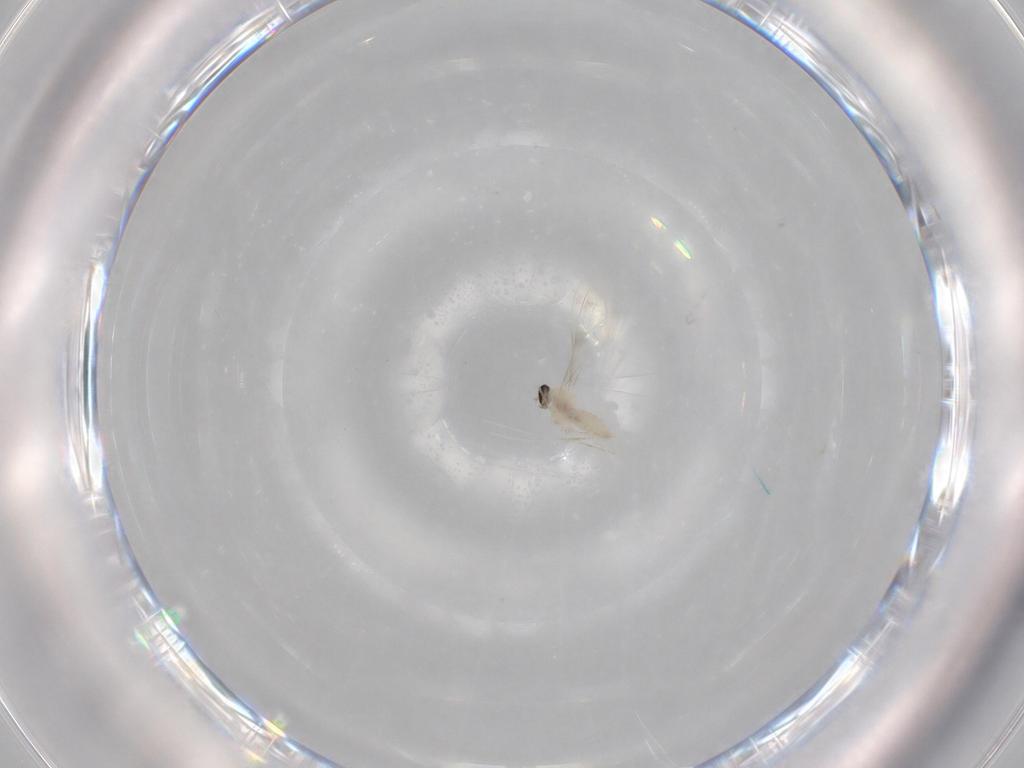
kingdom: Animalia
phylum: Arthropoda
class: Insecta
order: Diptera
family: Cecidomyiidae
